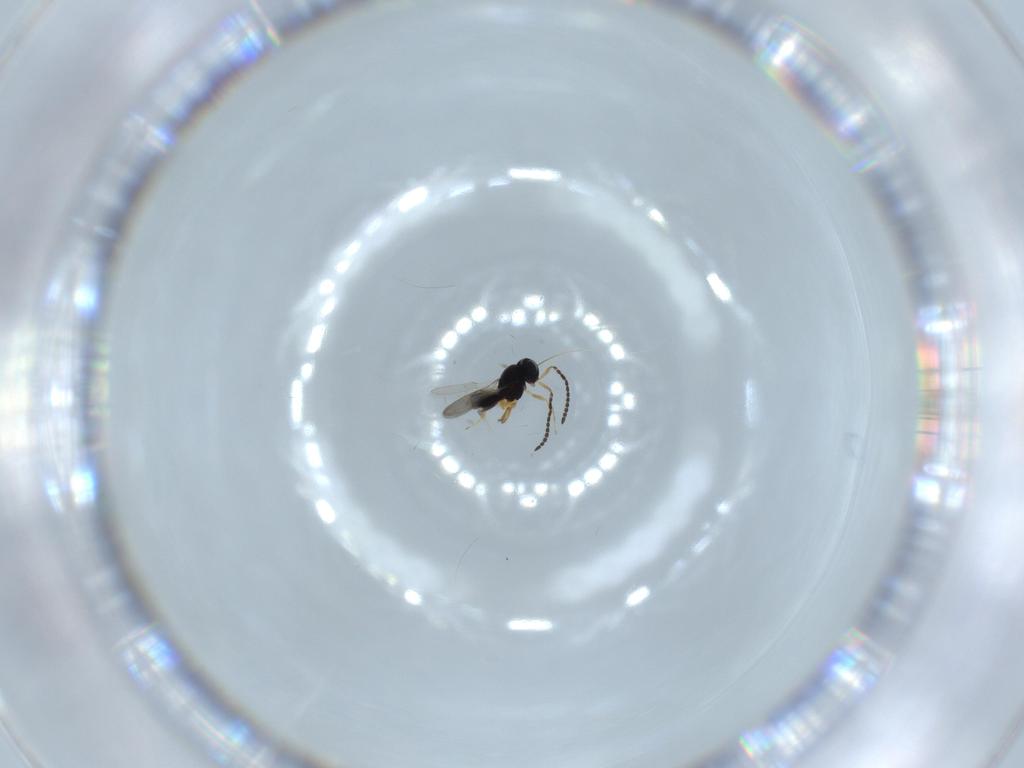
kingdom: Animalia
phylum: Arthropoda
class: Insecta
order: Hymenoptera
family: Scelionidae
